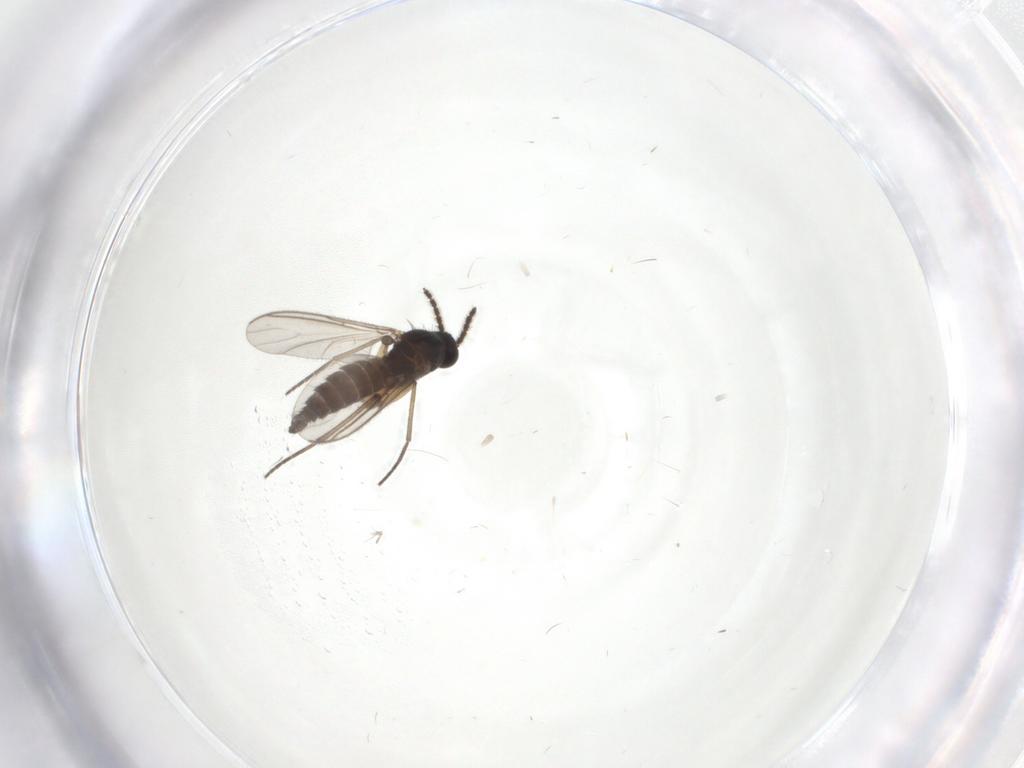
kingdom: Animalia
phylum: Arthropoda
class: Insecta
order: Diptera
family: Sciaridae
